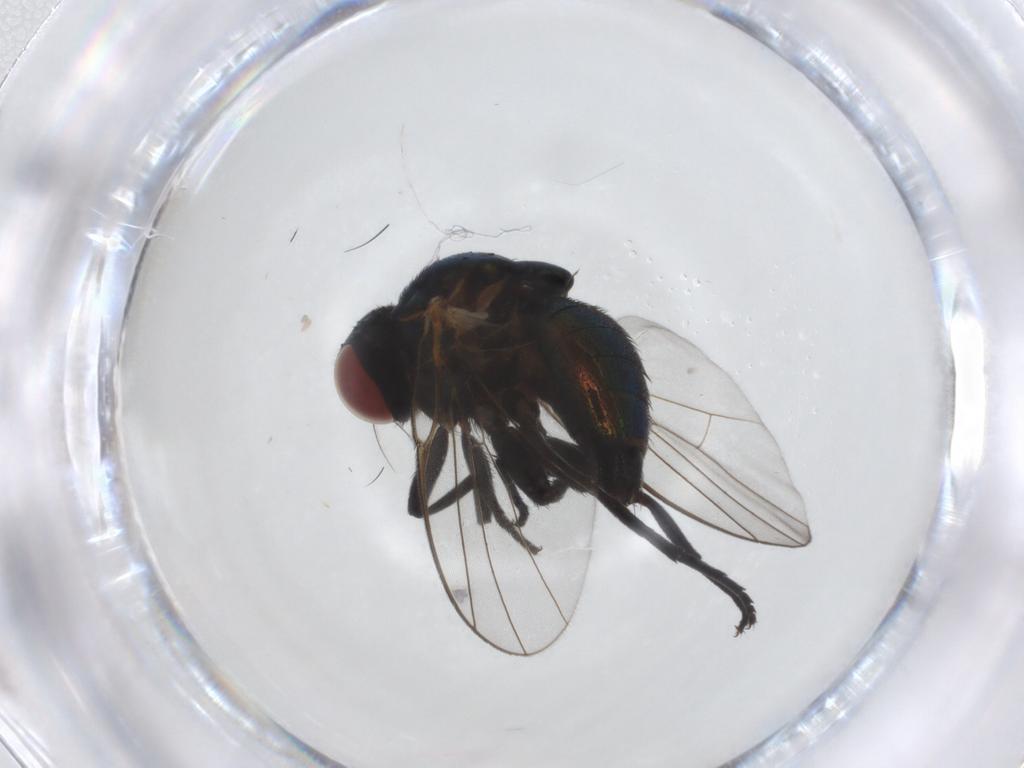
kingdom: Animalia
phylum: Arthropoda
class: Insecta
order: Diptera
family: Agromyzidae
